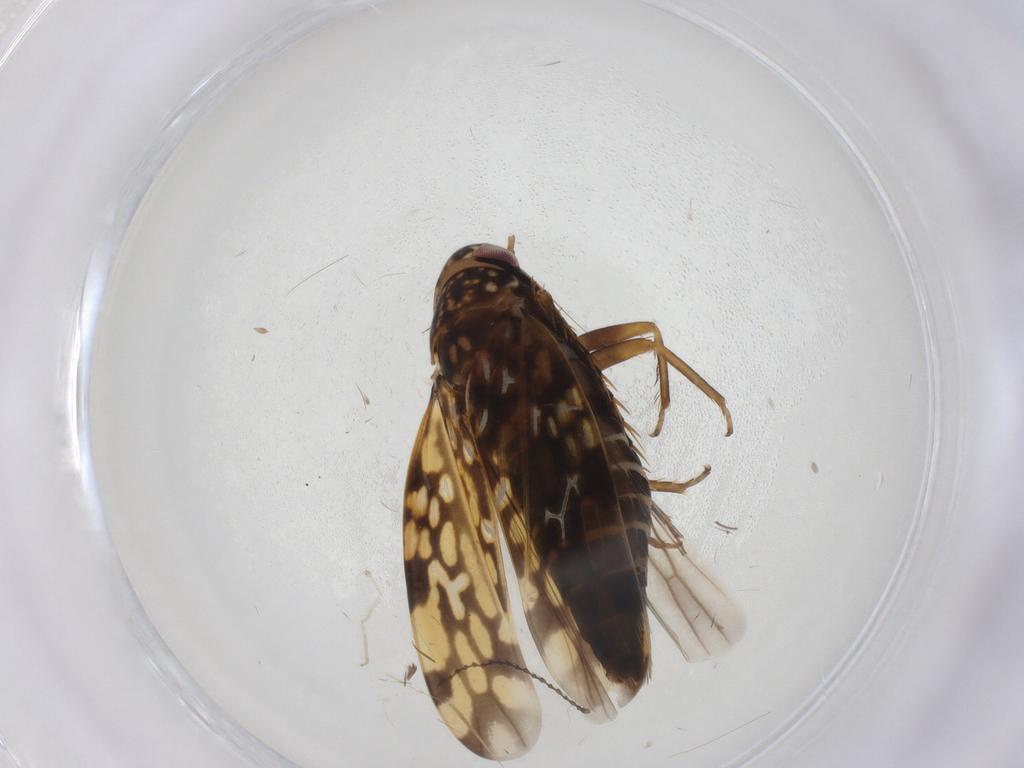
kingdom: Animalia
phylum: Arthropoda
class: Insecta
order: Hemiptera
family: Cicadellidae
